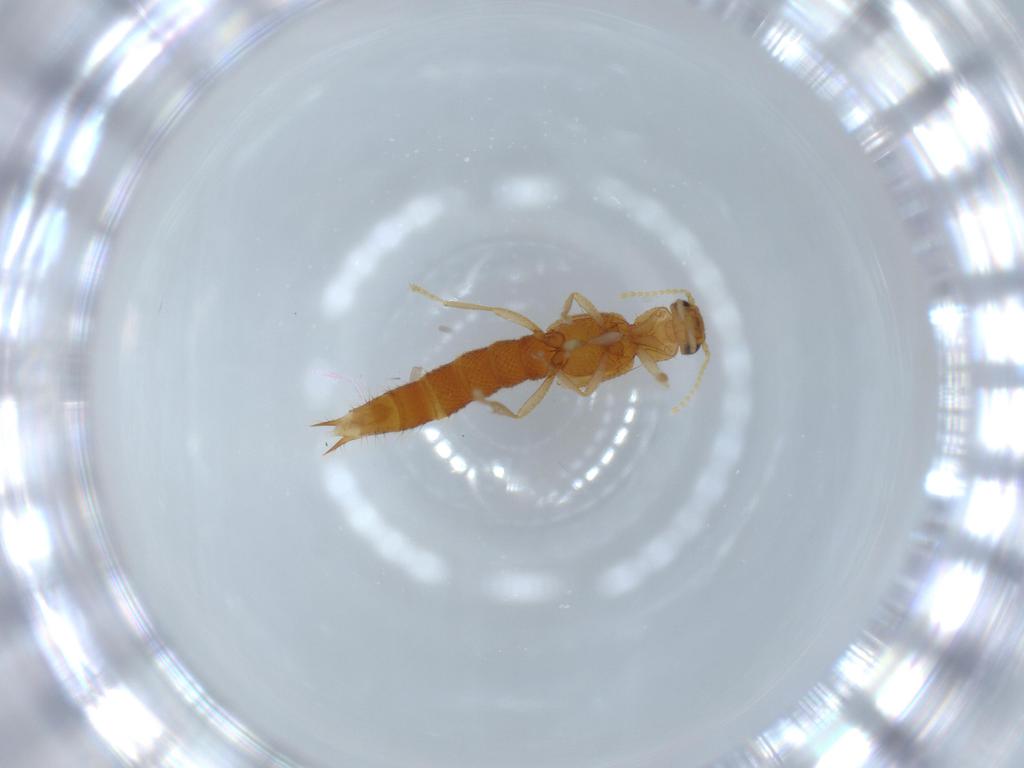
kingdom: Animalia
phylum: Arthropoda
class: Insecta
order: Coleoptera
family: Staphylinidae
